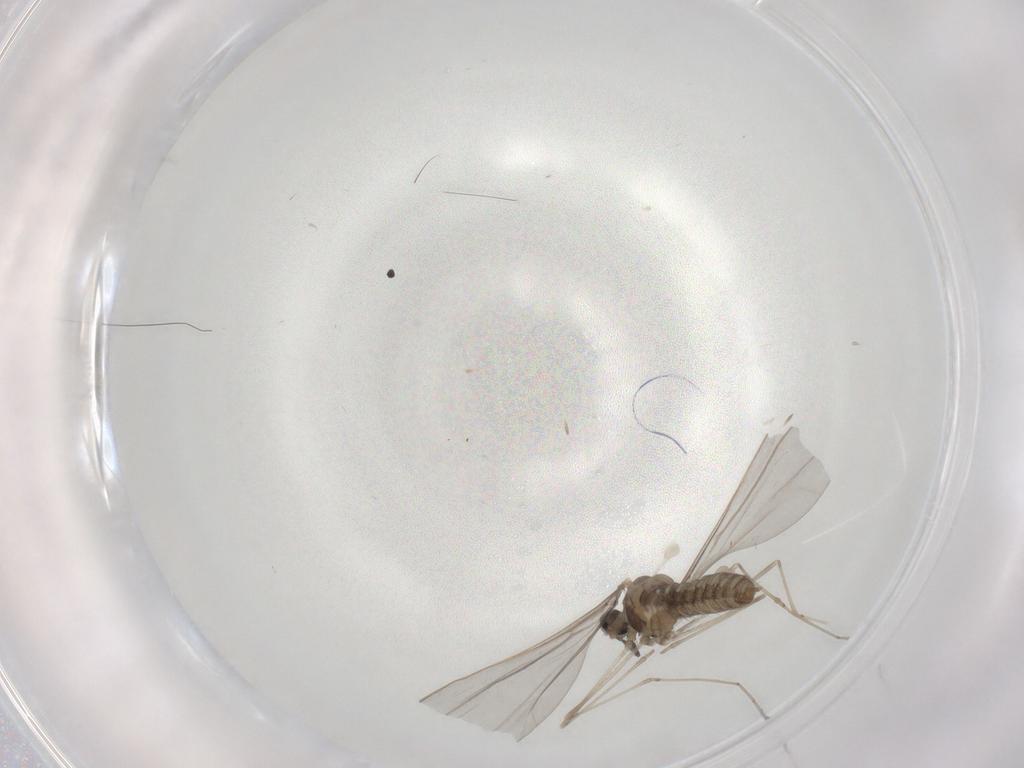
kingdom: Animalia
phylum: Arthropoda
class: Insecta
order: Diptera
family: Cecidomyiidae
